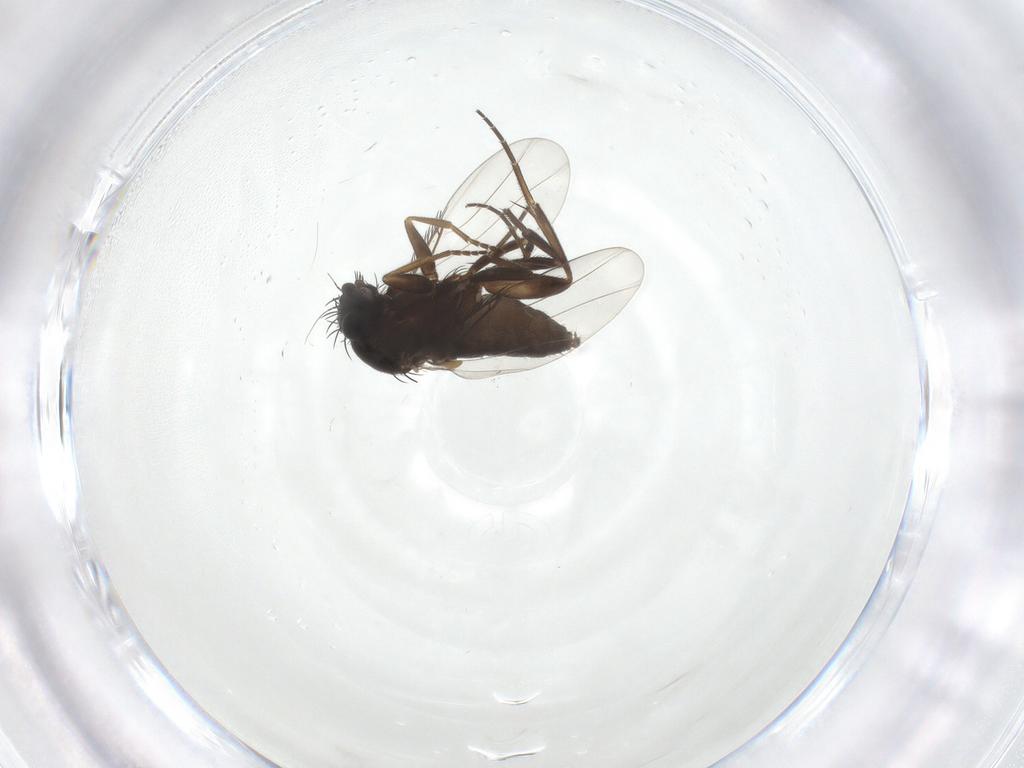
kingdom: Animalia
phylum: Arthropoda
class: Insecta
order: Diptera
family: Phoridae
